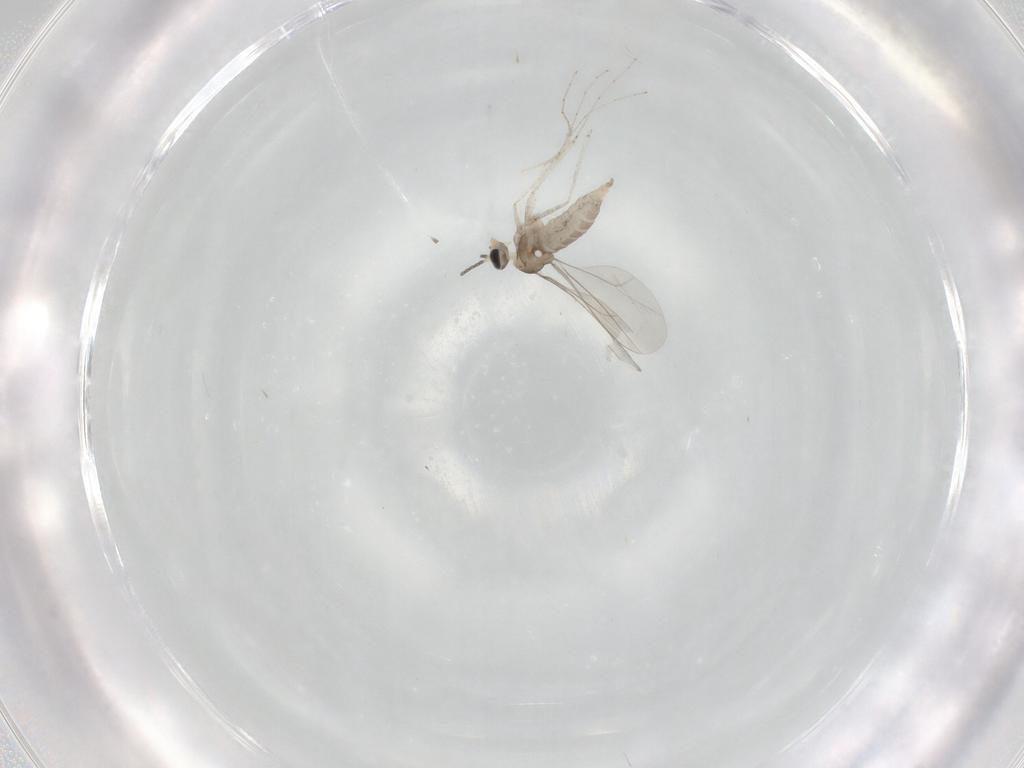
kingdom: Animalia
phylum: Arthropoda
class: Insecta
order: Diptera
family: Cecidomyiidae
